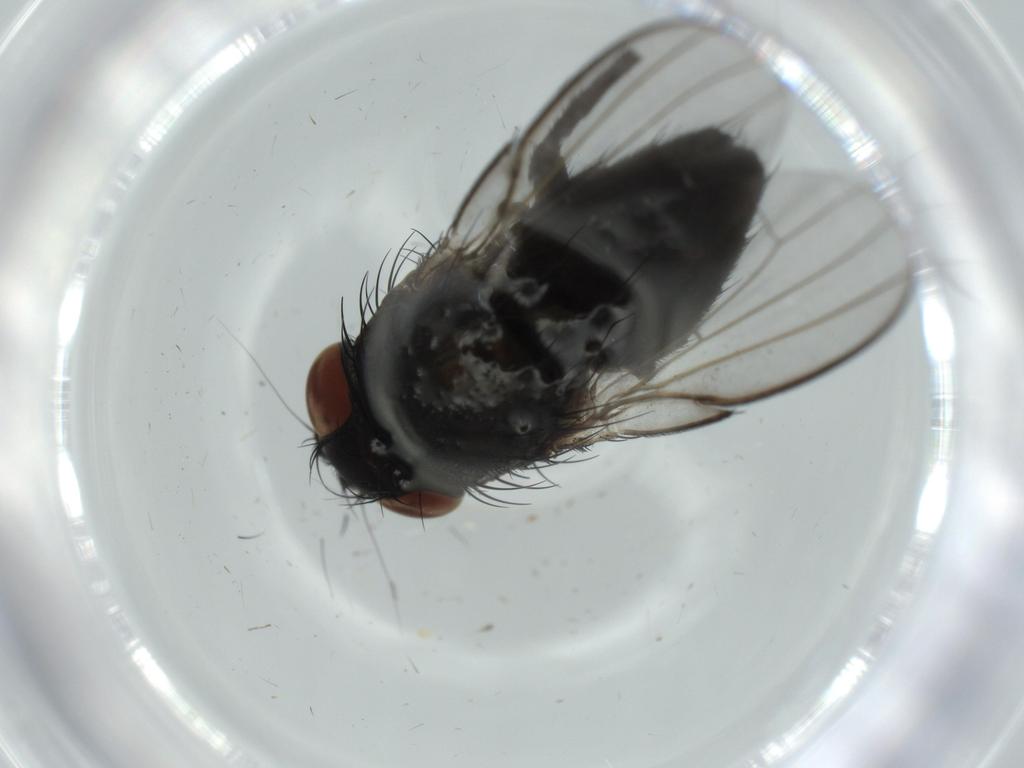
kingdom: Animalia
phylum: Arthropoda
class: Insecta
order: Diptera
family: Milichiidae
